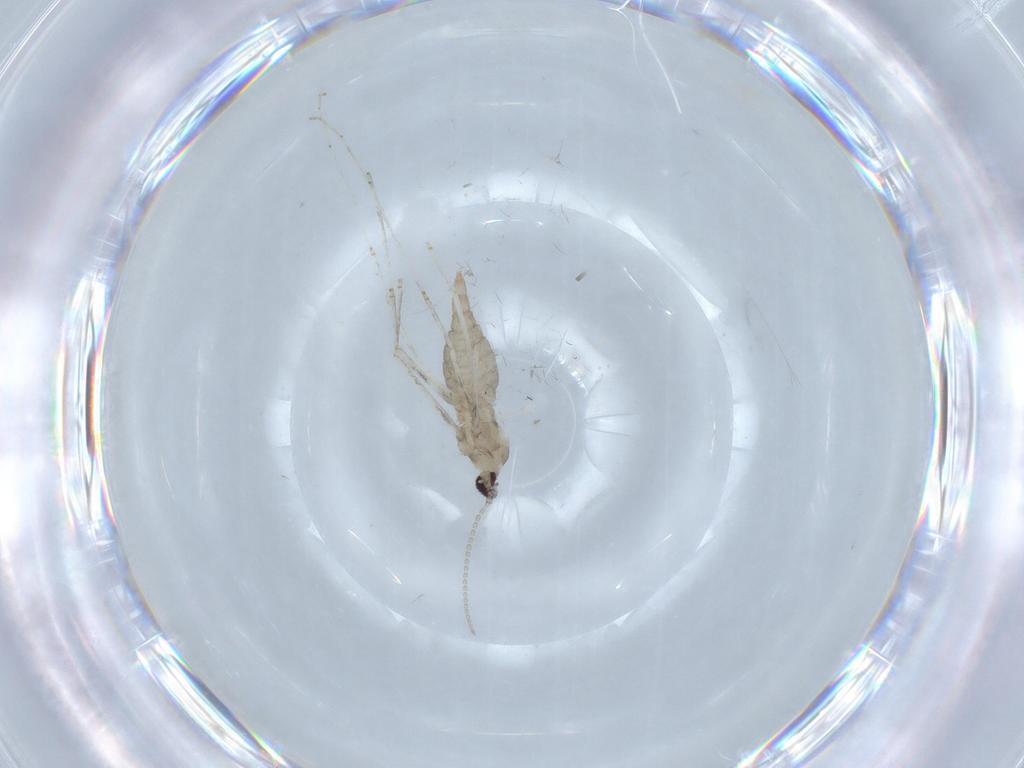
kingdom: Animalia
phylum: Arthropoda
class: Insecta
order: Diptera
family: Cecidomyiidae
